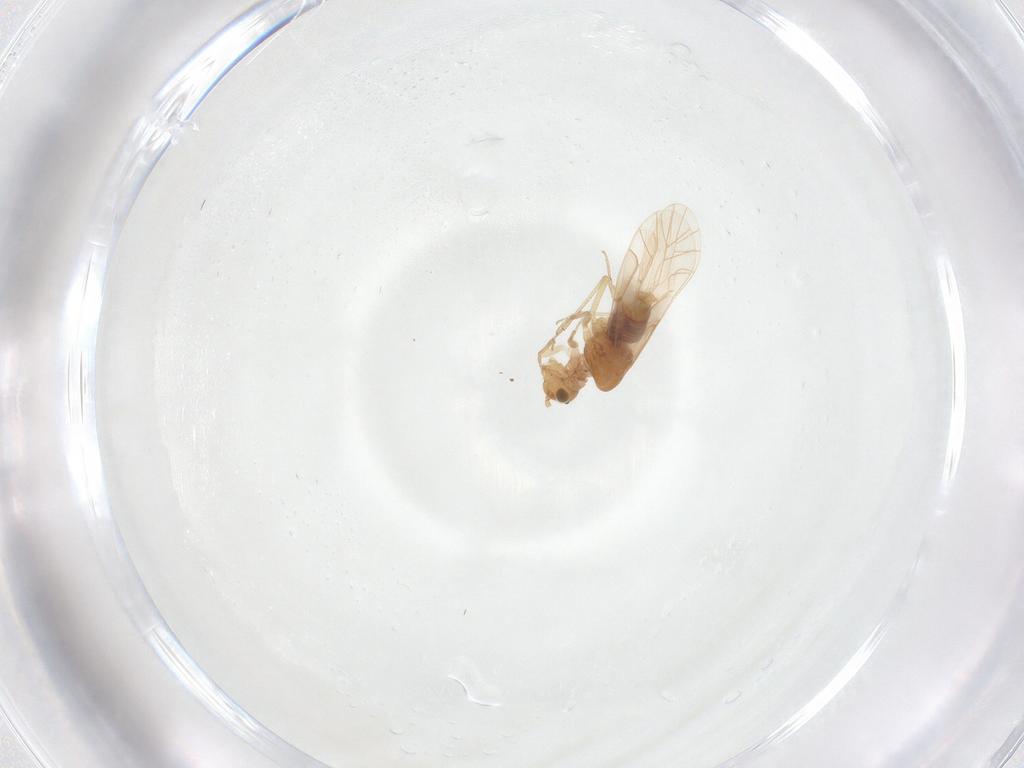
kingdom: Animalia
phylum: Arthropoda
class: Insecta
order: Psocodea
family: Lachesillidae
